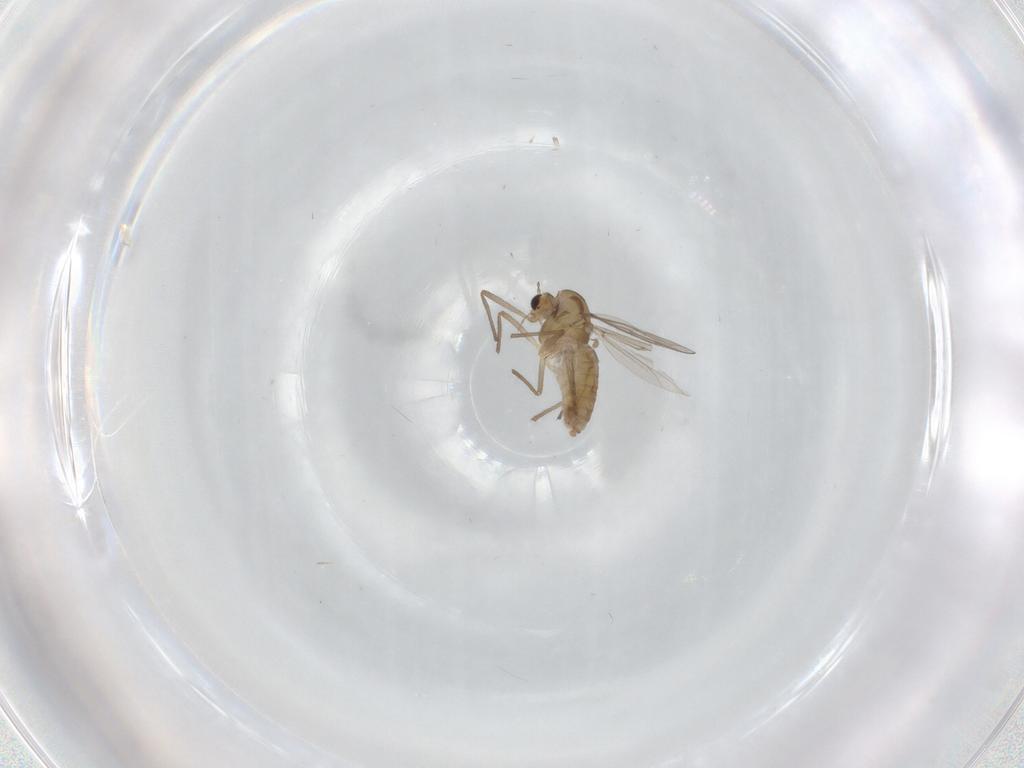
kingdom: Animalia
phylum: Arthropoda
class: Insecta
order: Diptera
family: Chironomidae
